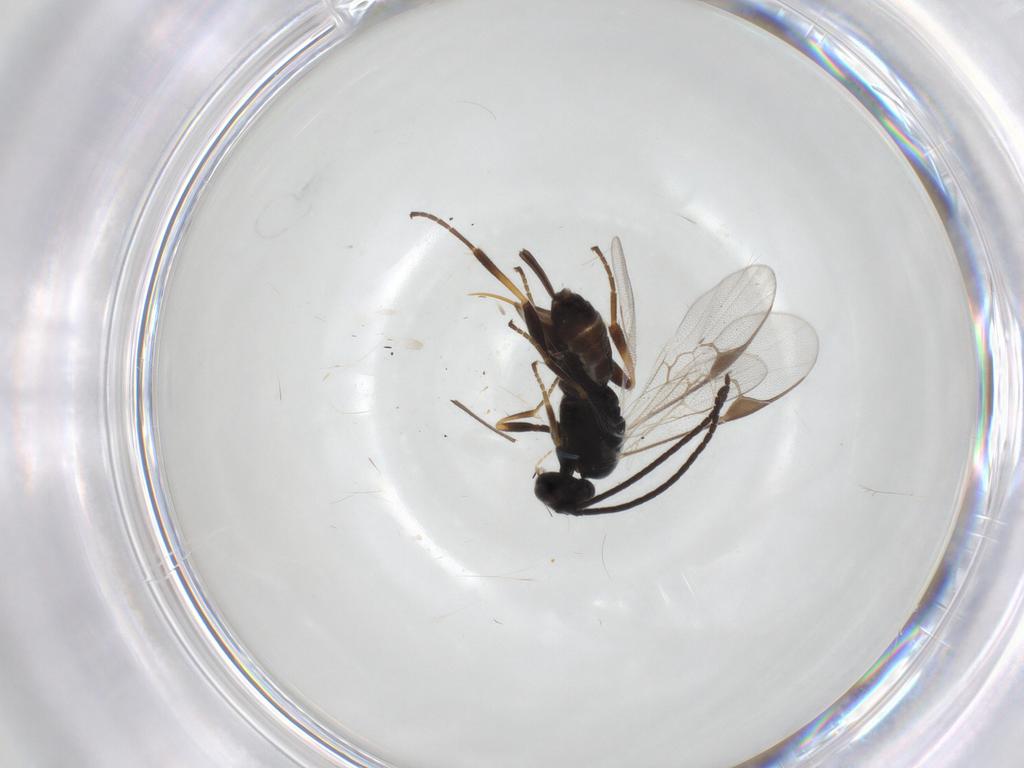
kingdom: Animalia
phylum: Arthropoda
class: Insecta
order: Hymenoptera
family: Braconidae
